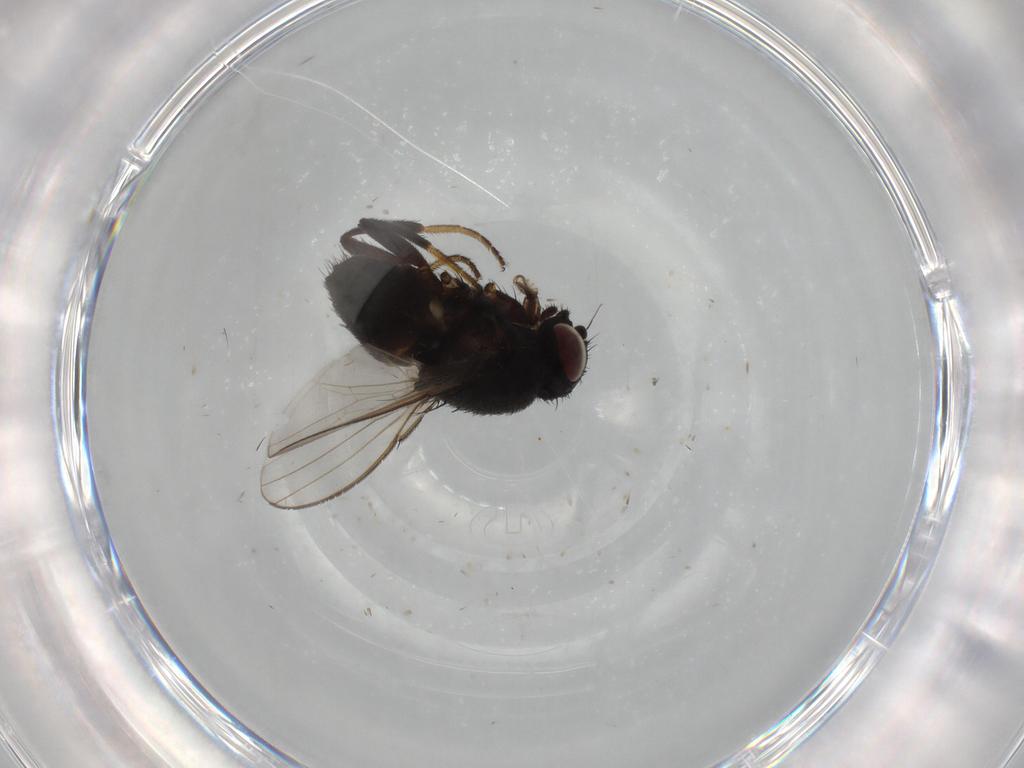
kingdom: Animalia
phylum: Arthropoda
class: Insecta
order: Diptera
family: Milichiidae
